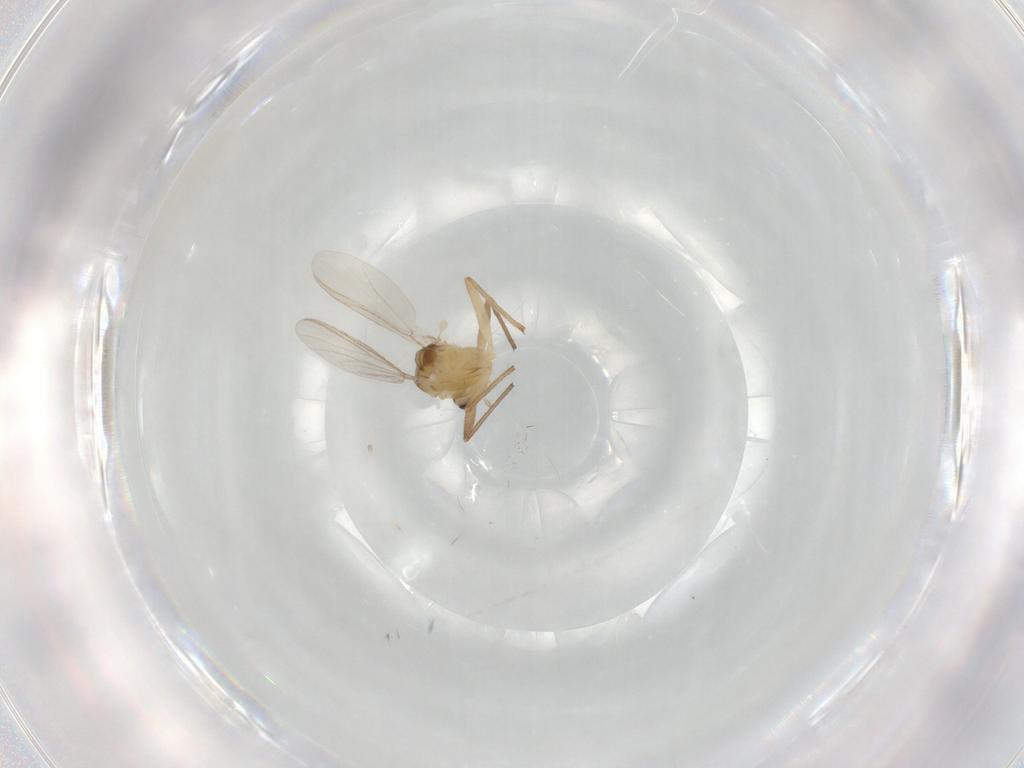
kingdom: Animalia
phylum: Arthropoda
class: Insecta
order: Diptera
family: Chironomidae
